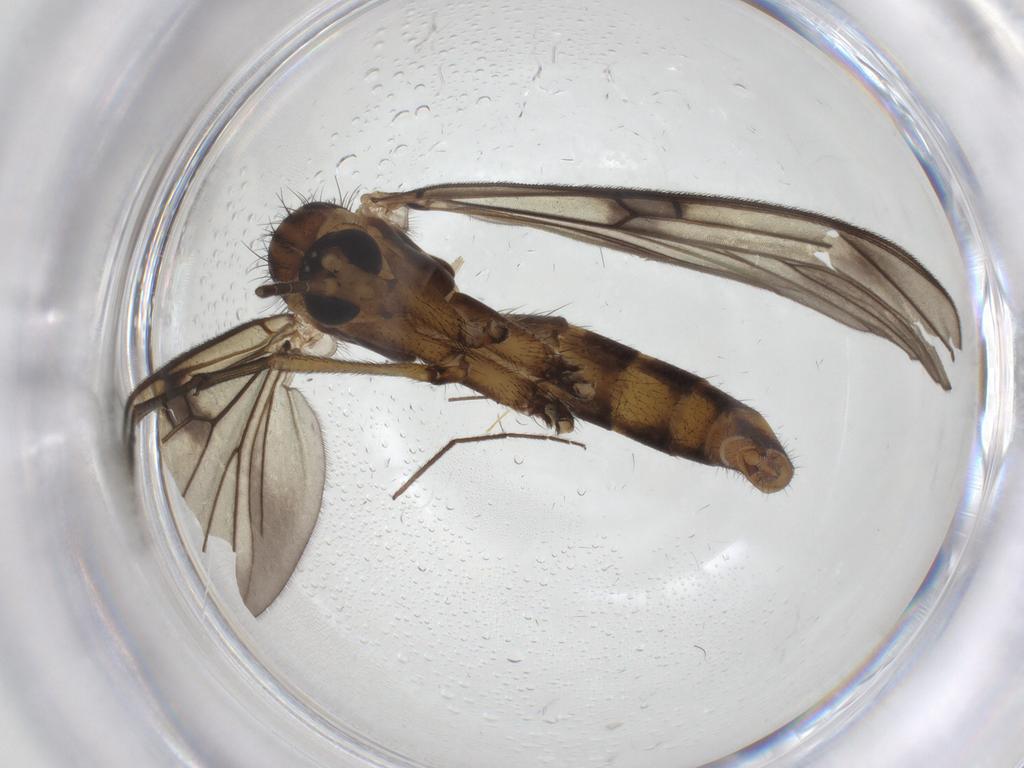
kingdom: Animalia
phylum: Arthropoda
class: Insecta
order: Diptera
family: Mycetophilidae
